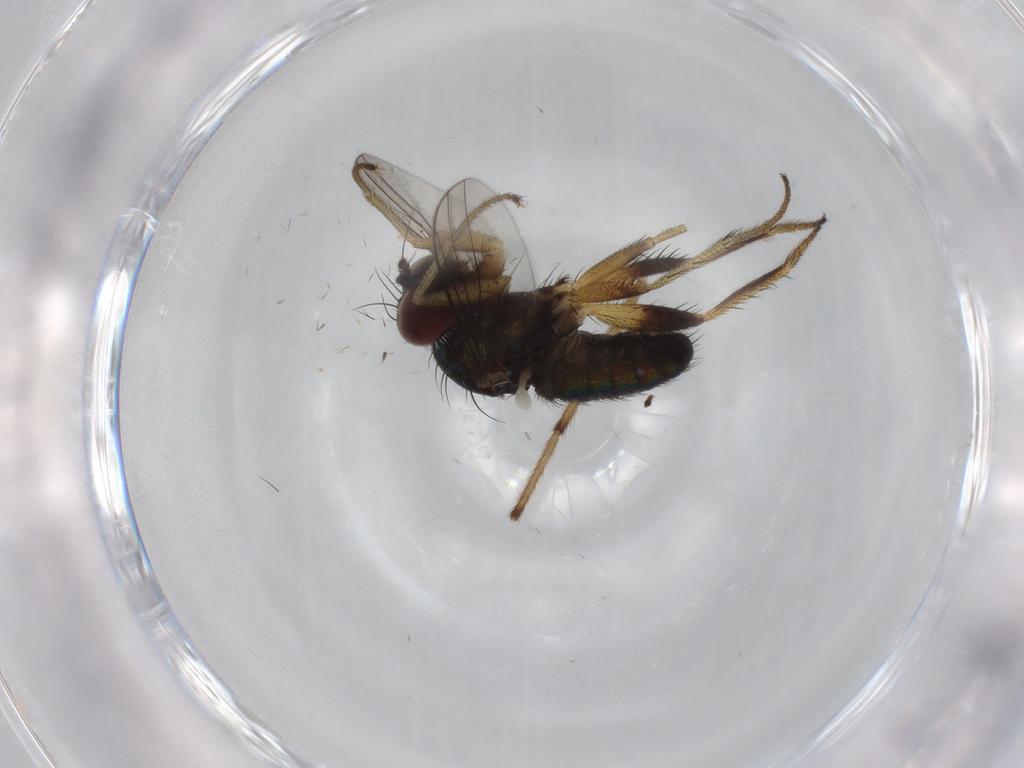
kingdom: Animalia
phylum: Arthropoda
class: Insecta
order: Diptera
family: Dolichopodidae
